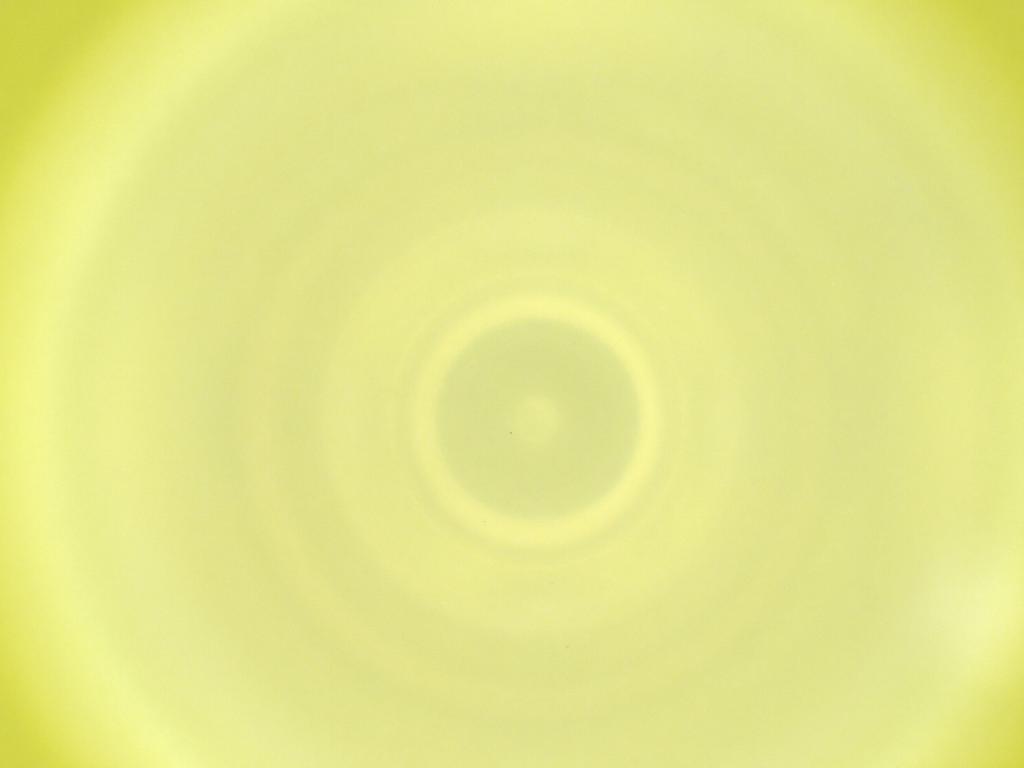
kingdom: Animalia
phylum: Arthropoda
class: Insecta
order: Diptera
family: Cecidomyiidae
